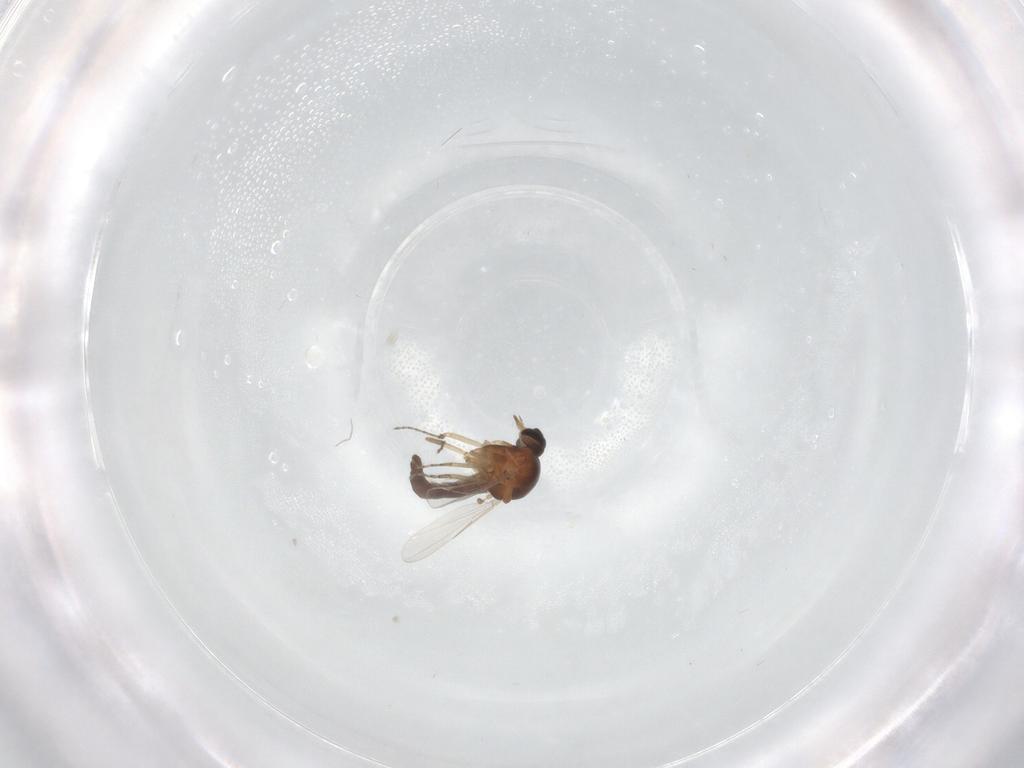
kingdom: Animalia
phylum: Arthropoda
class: Insecta
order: Diptera
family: Ceratopogonidae
